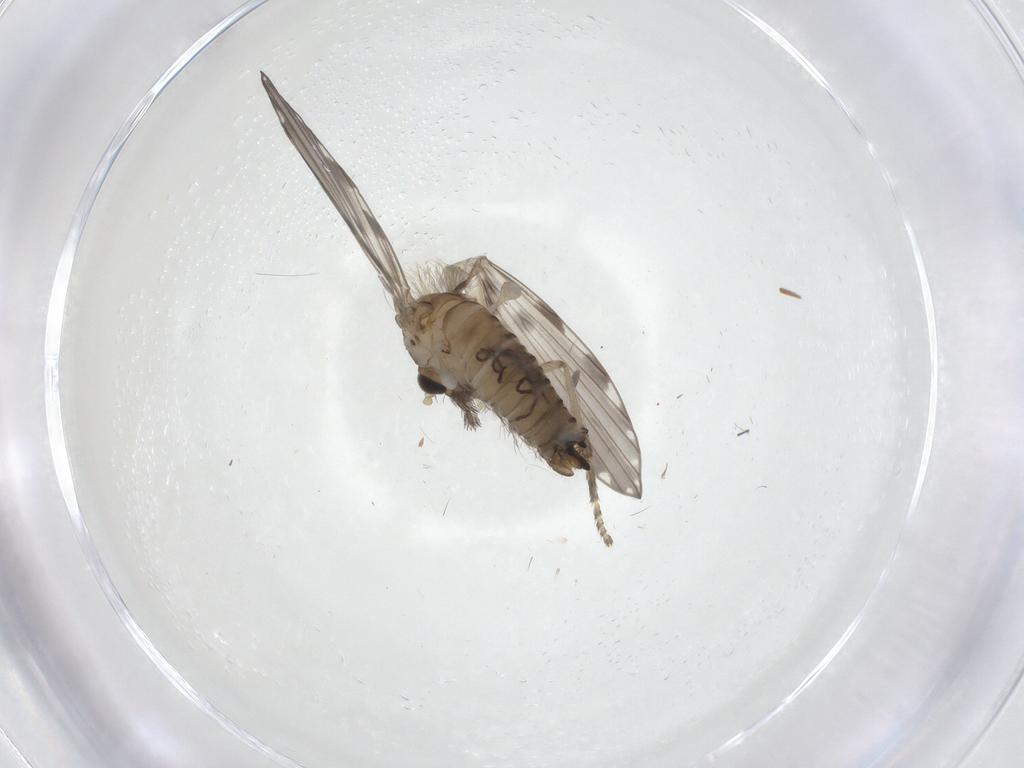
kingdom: Animalia
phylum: Arthropoda
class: Insecta
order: Diptera
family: Psychodidae
